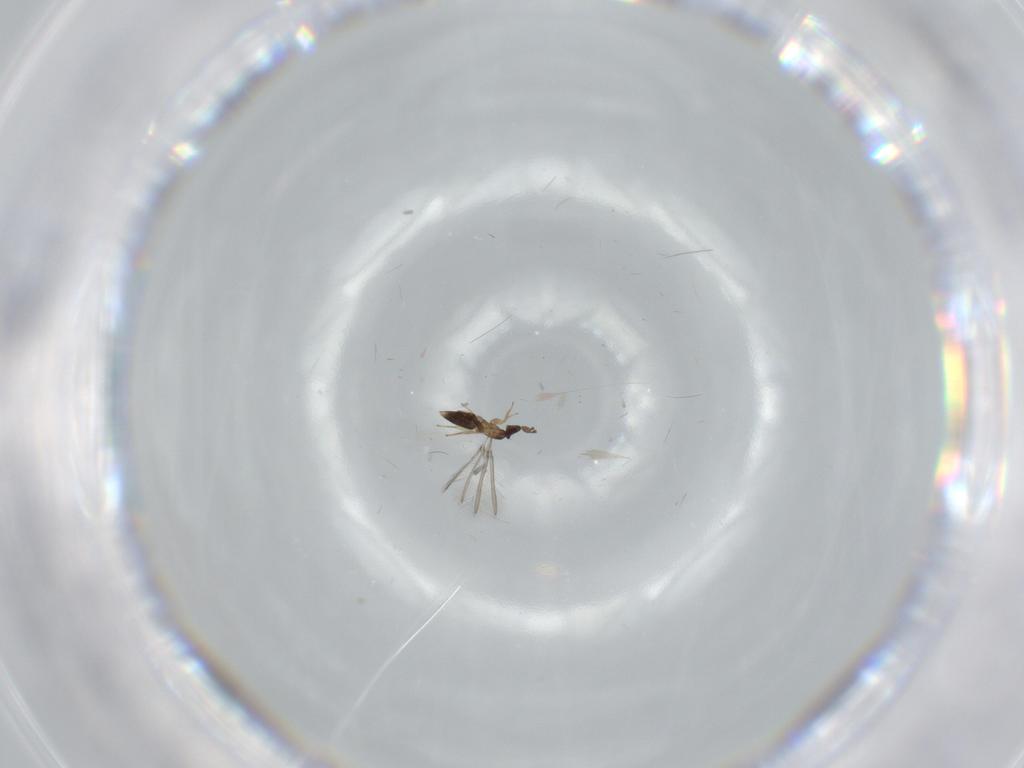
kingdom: Animalia
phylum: Arthropoda
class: Insecta
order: Hymenoptera
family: Mymaridae
